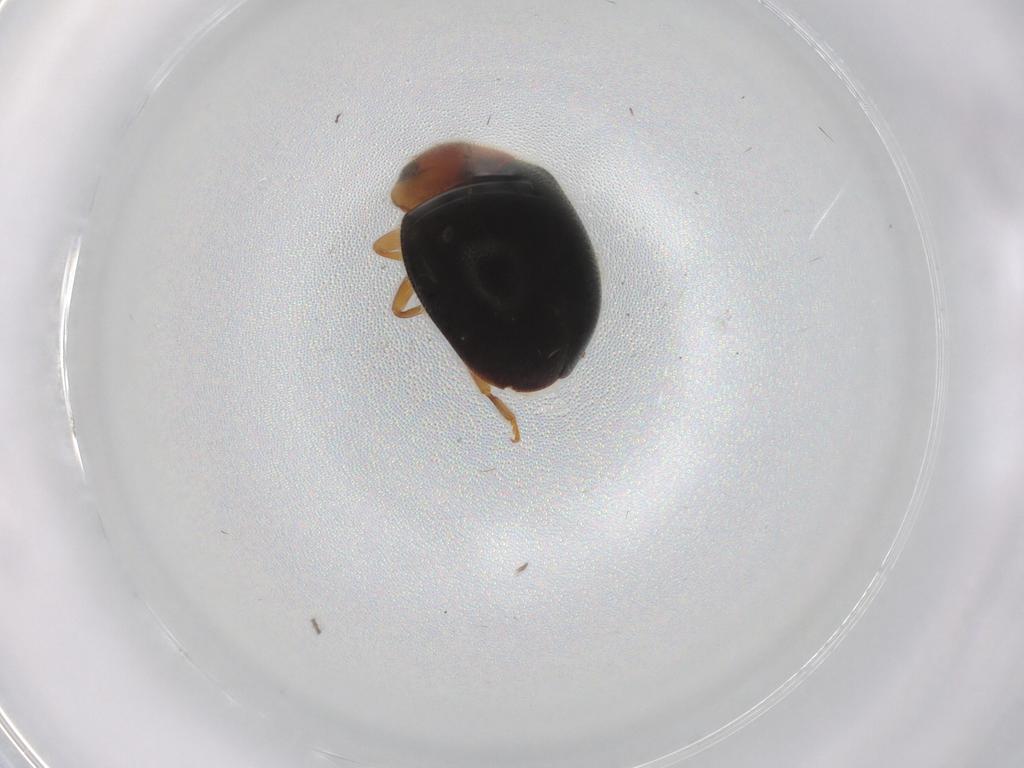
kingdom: Animalia
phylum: Arthropoda
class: Insecta
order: Coleoptera
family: Coccinellidae
